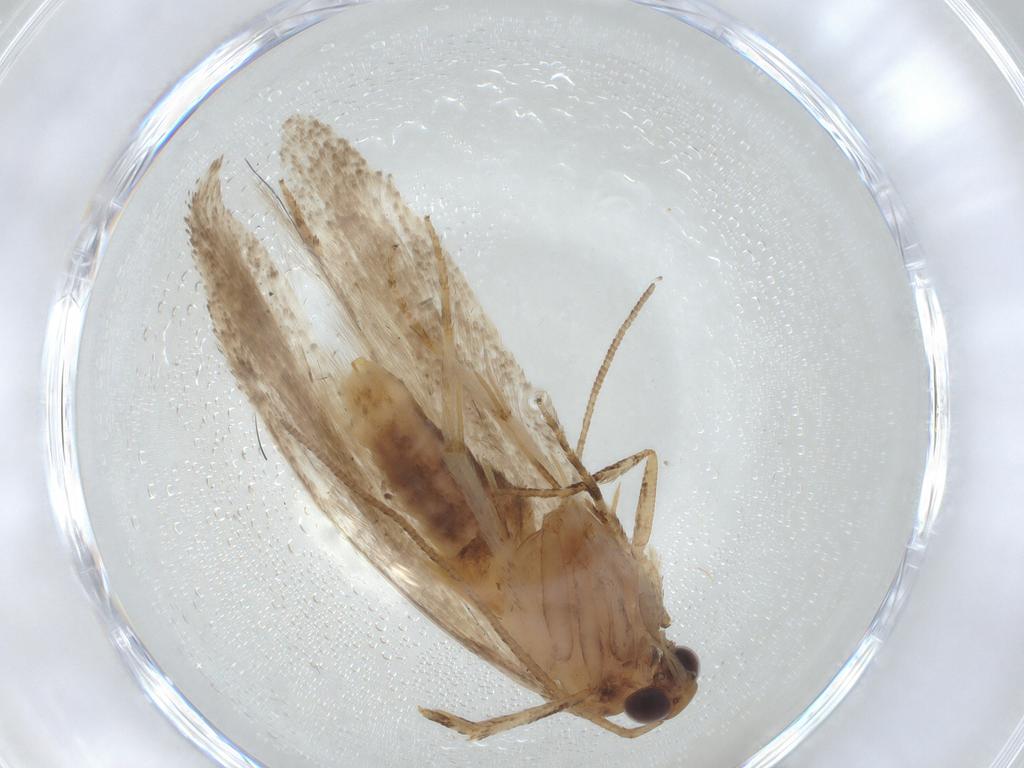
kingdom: Animalia
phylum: Arthropoda
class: Insecta
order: Lepidoptera
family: Gelechiidae
